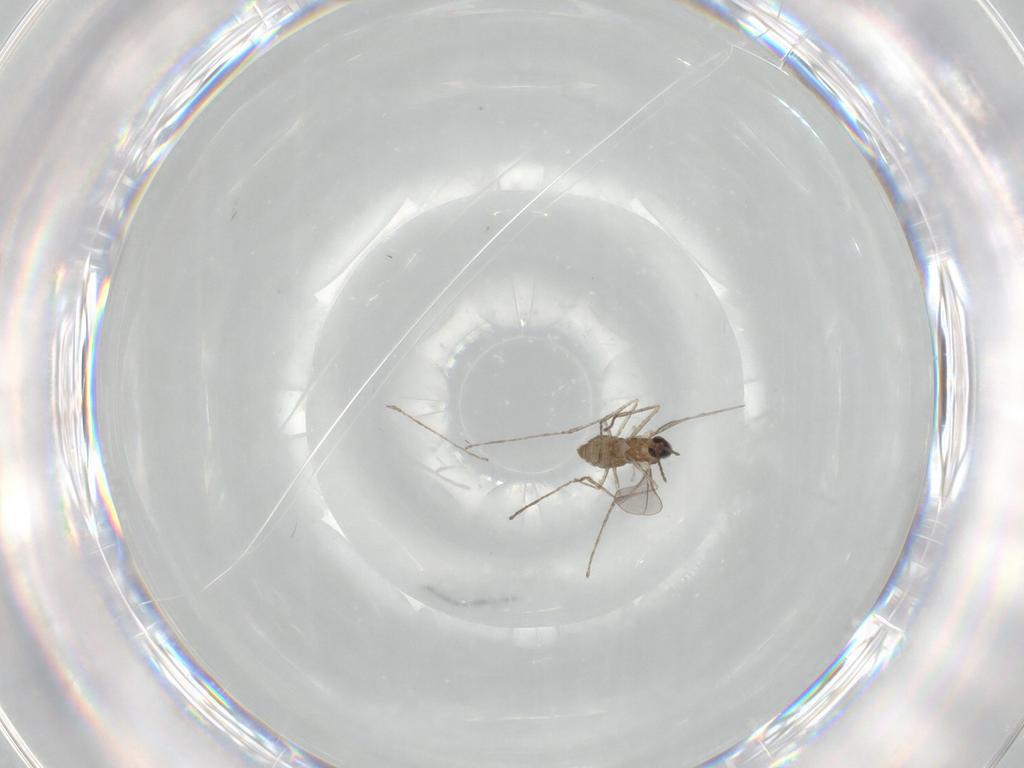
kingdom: Animalia
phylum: Arthropoda
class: Insecta
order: Diptera
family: Cecidomyiidae
